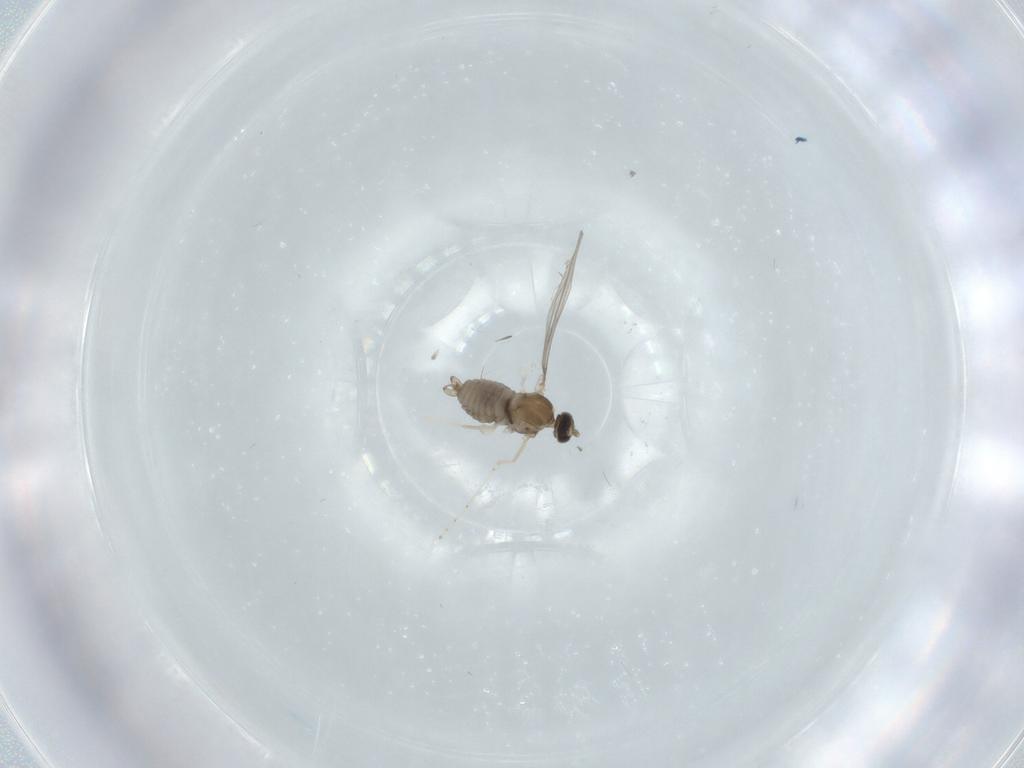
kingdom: Animalia
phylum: Arthropoda
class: Insecta
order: Diptera
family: Cecidomyiidae
